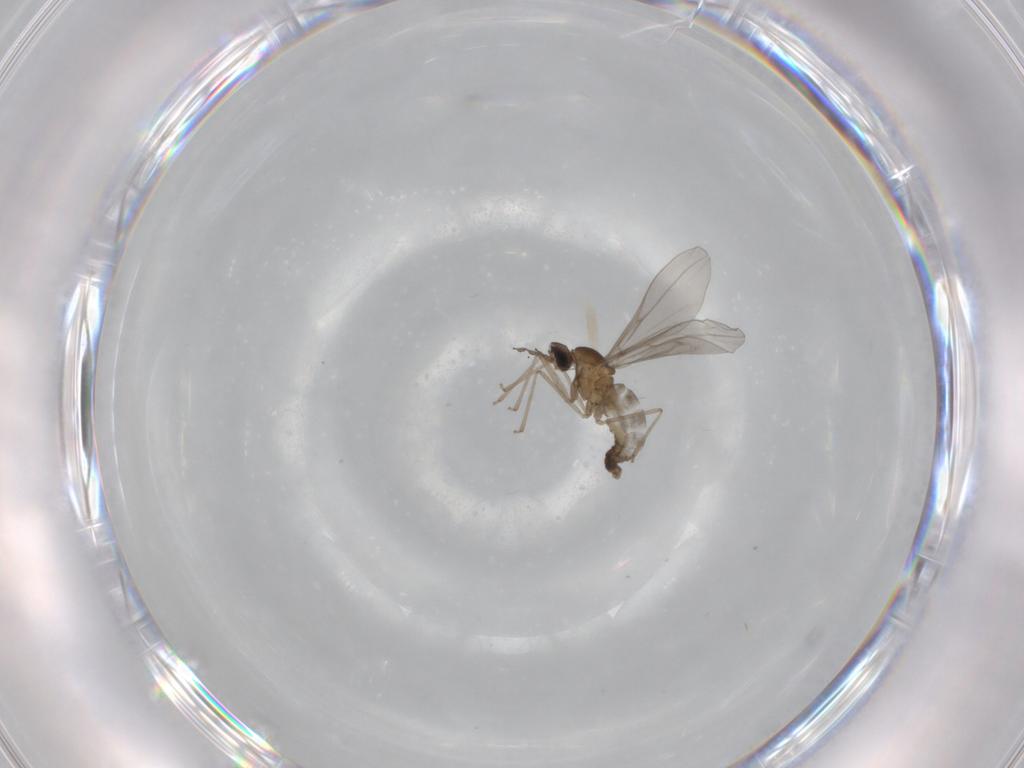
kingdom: Animalia
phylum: Arthropoda
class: Insecta
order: Diptera
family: Cecidomyiidae
